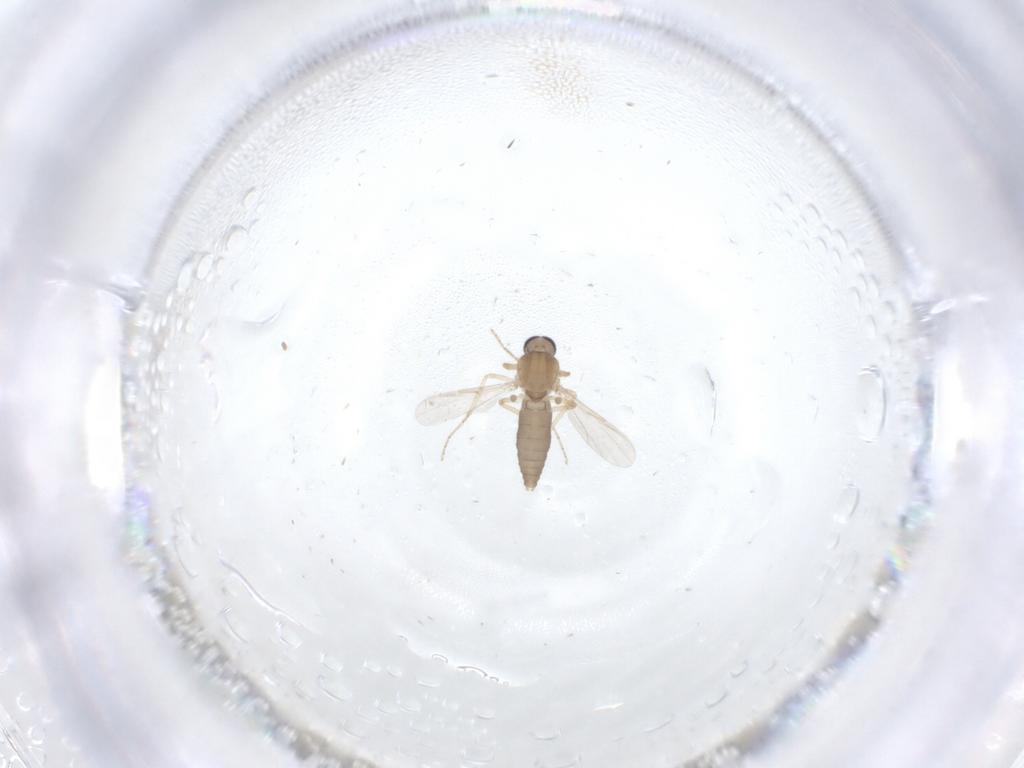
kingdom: Animalia
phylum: Arthropoda
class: Insecta
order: Diptera
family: Ceratopogonidae
